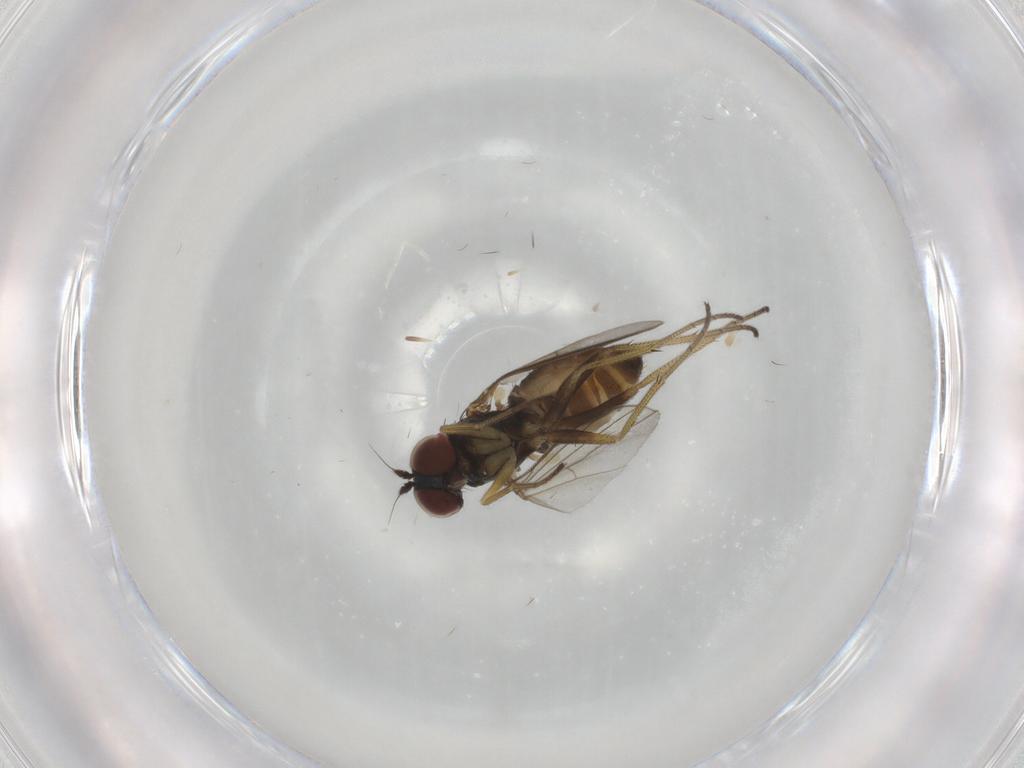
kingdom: Animalia
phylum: Arthropoda
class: Insecta
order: Diptera
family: Dolichopodidae
